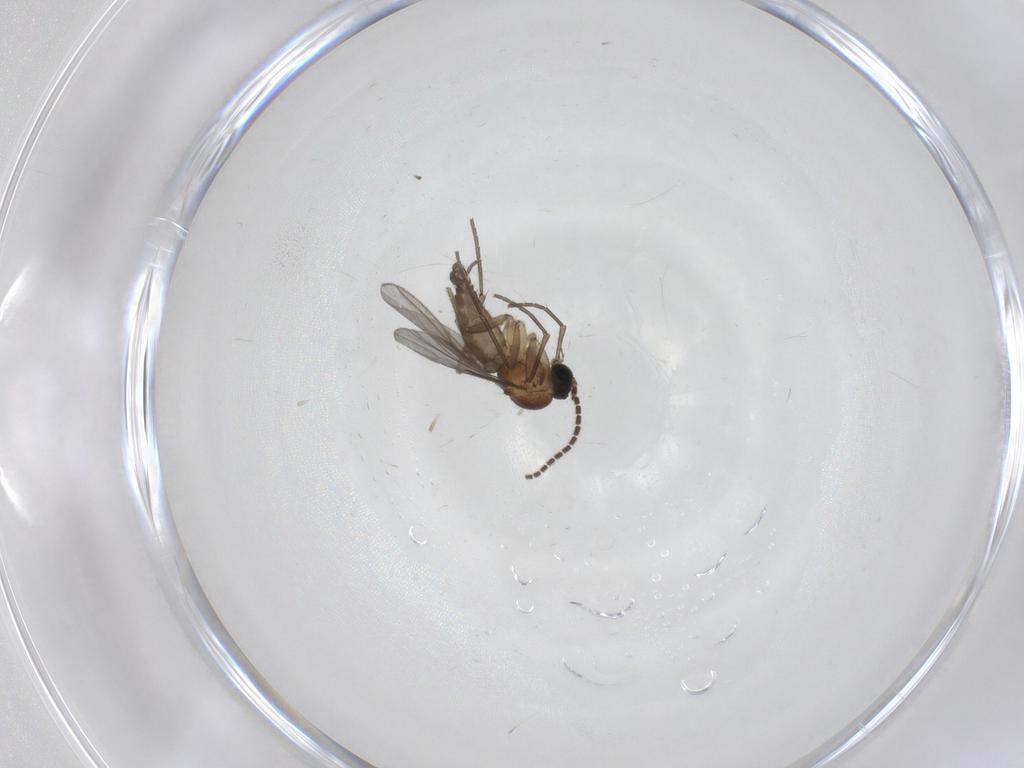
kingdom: Animalia
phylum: Arthropoda
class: Insecta
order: Diptera
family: Sciaridae
